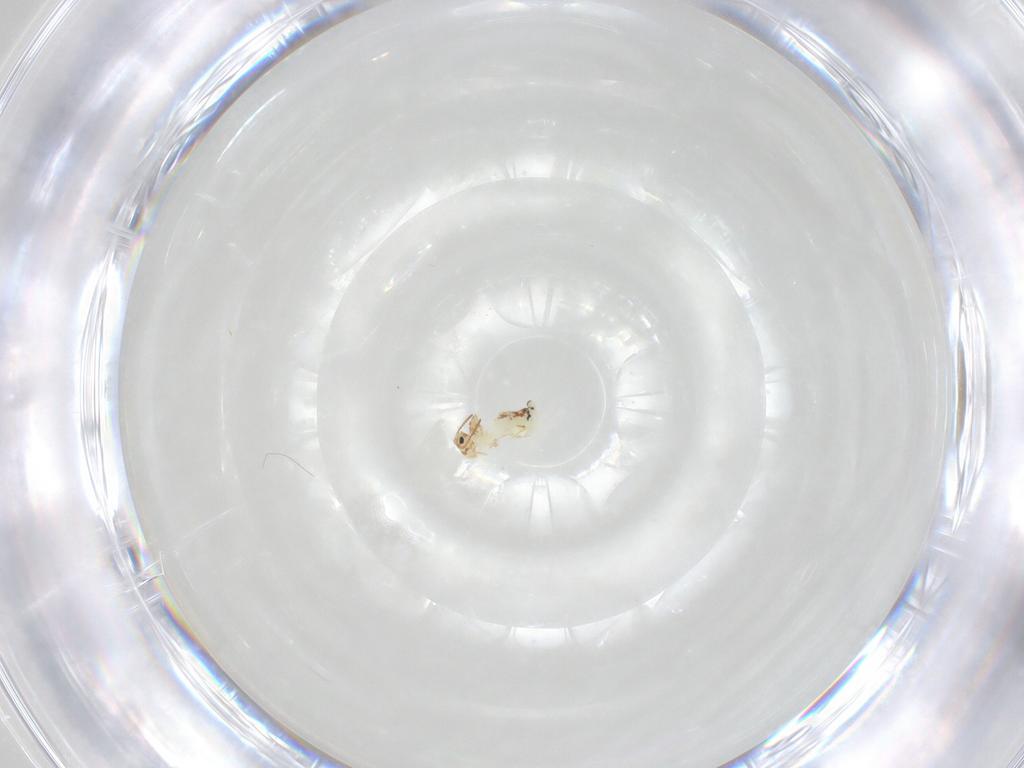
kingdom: Animalia
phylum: Arthropoda
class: Collembola
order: Symphypleona
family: Bourletiellidae
